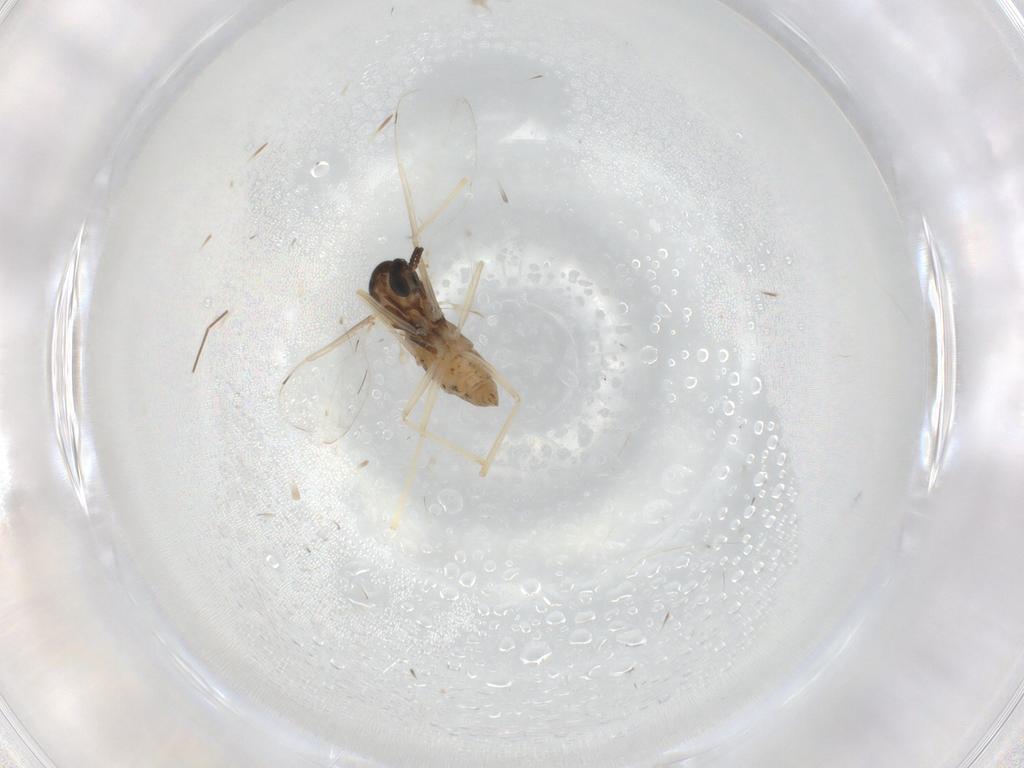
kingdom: Animalia
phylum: Arthropoda
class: Insecta
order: Diptera
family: Cecidomyiidae
